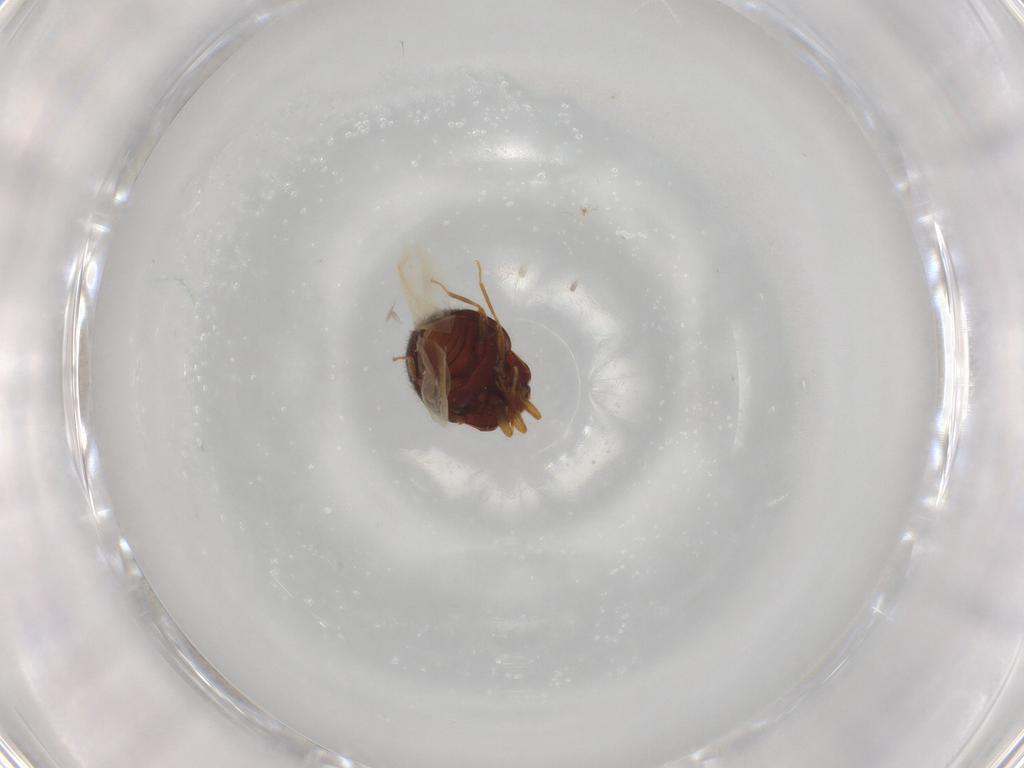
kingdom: Animalia
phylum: Arthropoda
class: Insecta
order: Coleoptera
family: Anamorphidae
